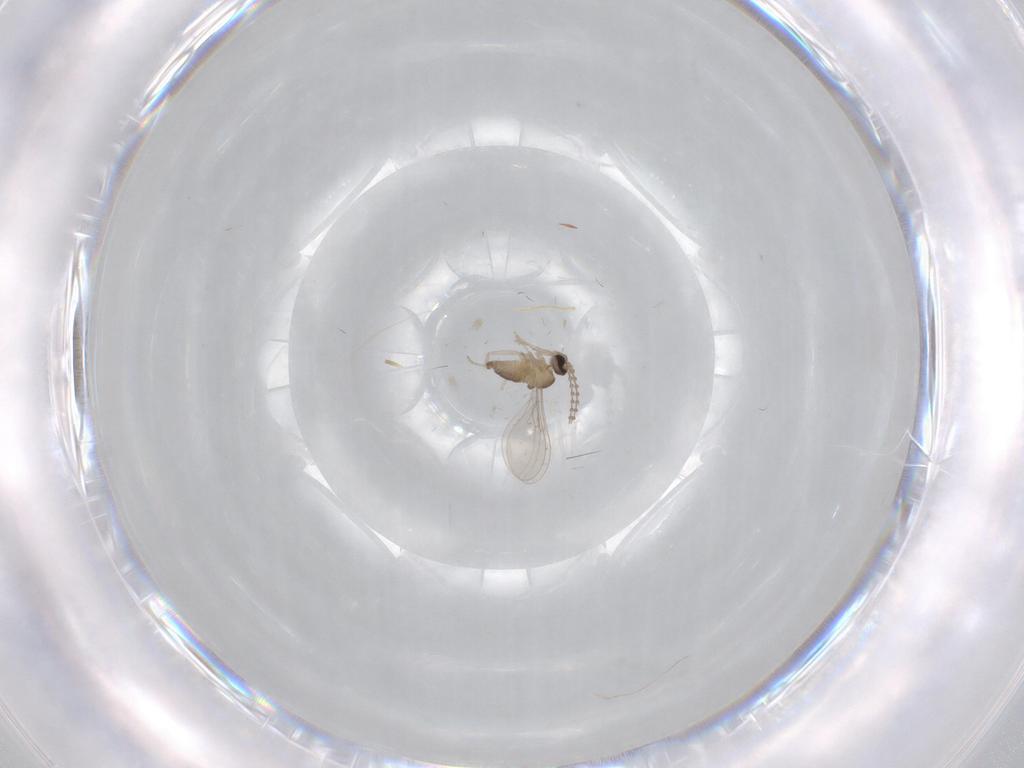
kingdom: Animalia
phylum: Arthropoda
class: Insecta
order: Diptera
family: Cecidomyiidae
